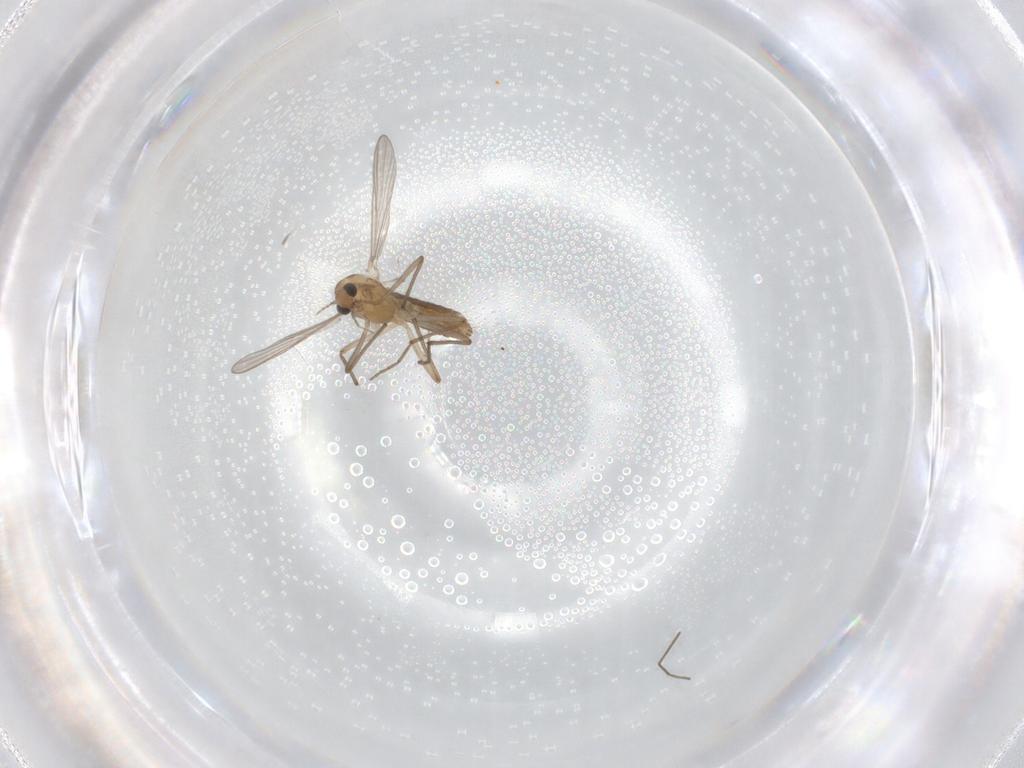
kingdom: Animalia
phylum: Arthropoda
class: Insecta
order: Diptera
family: Chironomidae
